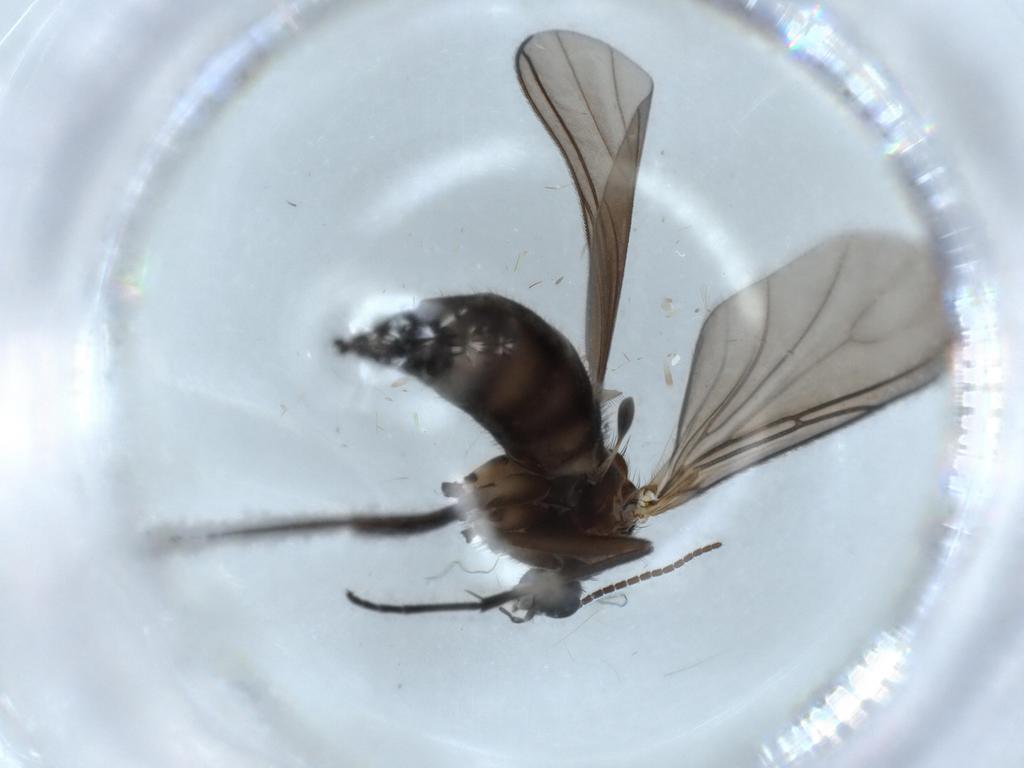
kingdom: Animalia
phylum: Arthropoda
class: Insecta
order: Diptera
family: Sciaridae
